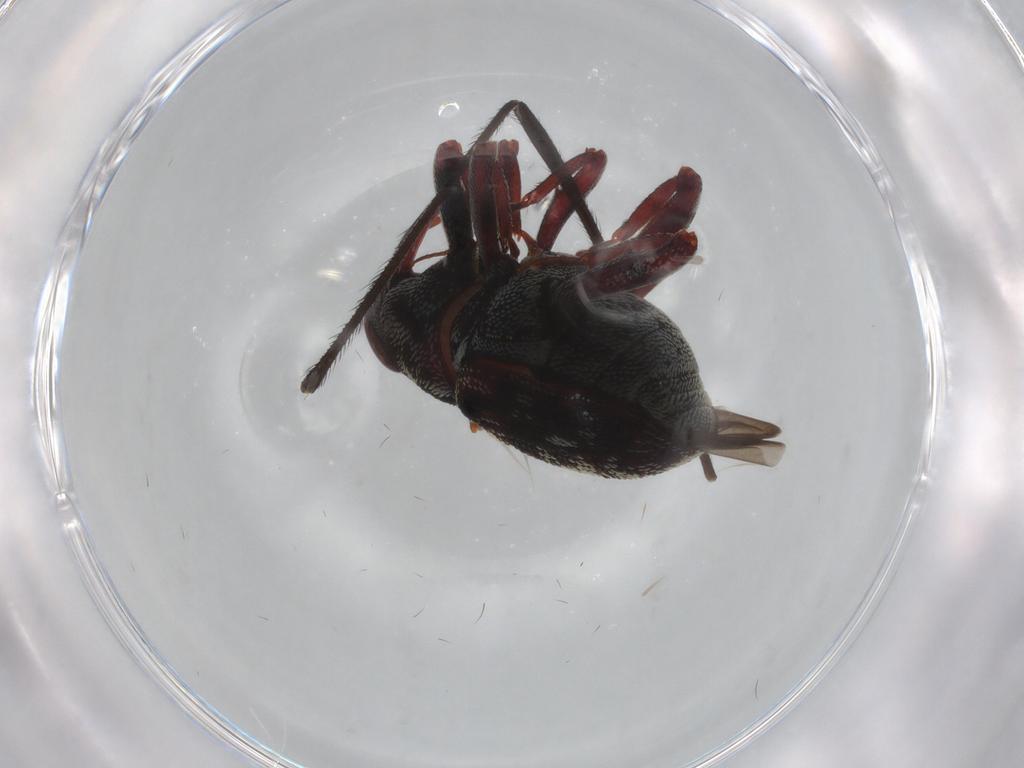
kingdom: Animalia
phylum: Arthropoda
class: Insecta
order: Coleoptera
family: Curculionidae
